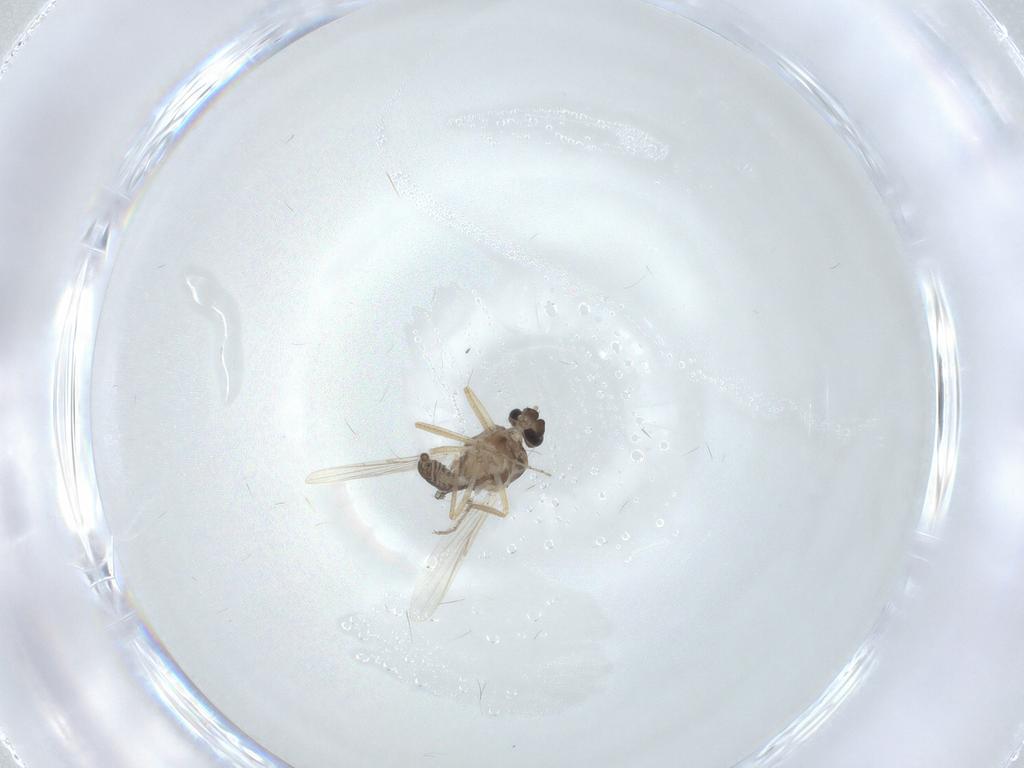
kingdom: Animalia
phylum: Arthropoda
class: Insecta
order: Diptera
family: Ceratopogonidae
